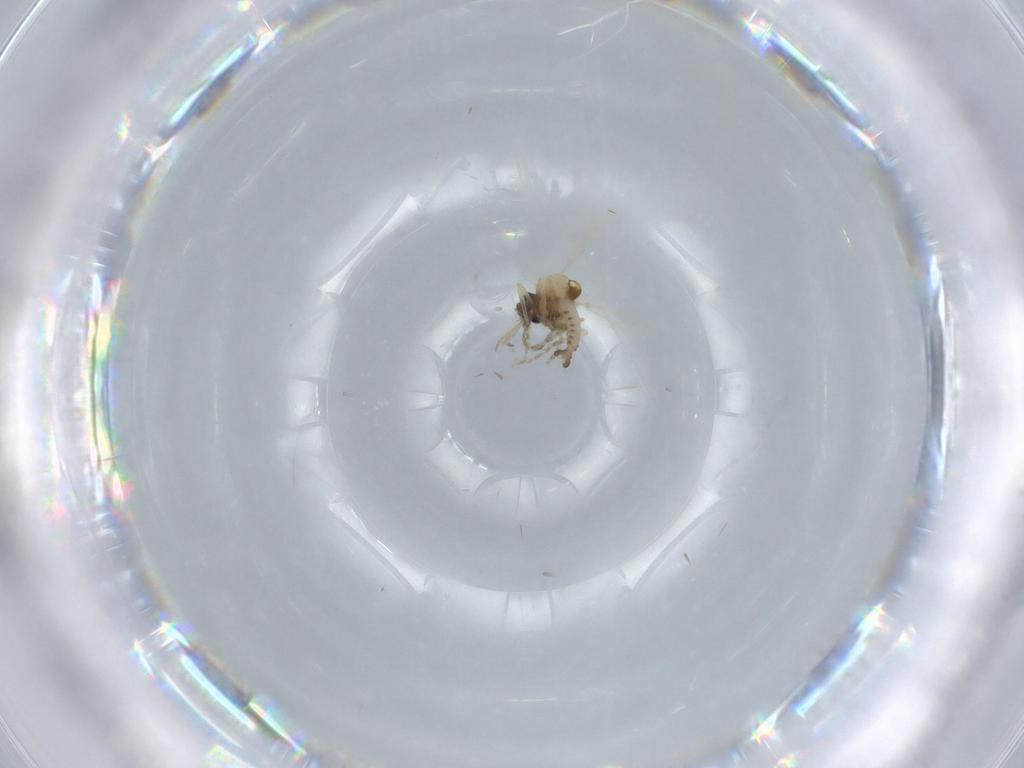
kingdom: Animalia
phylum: Arthropoda
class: Insecta
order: Diptera
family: Ceratopogonidae
